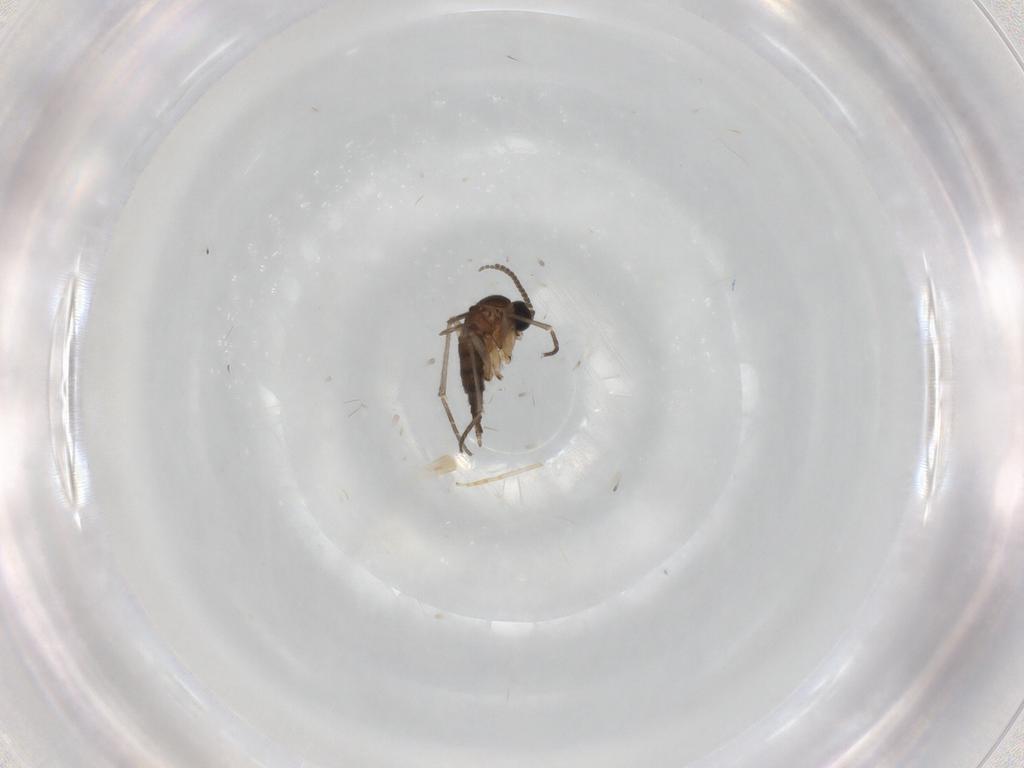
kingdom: Animalia
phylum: Arthropoda
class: Insecta
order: Diptera
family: Sciaridae
